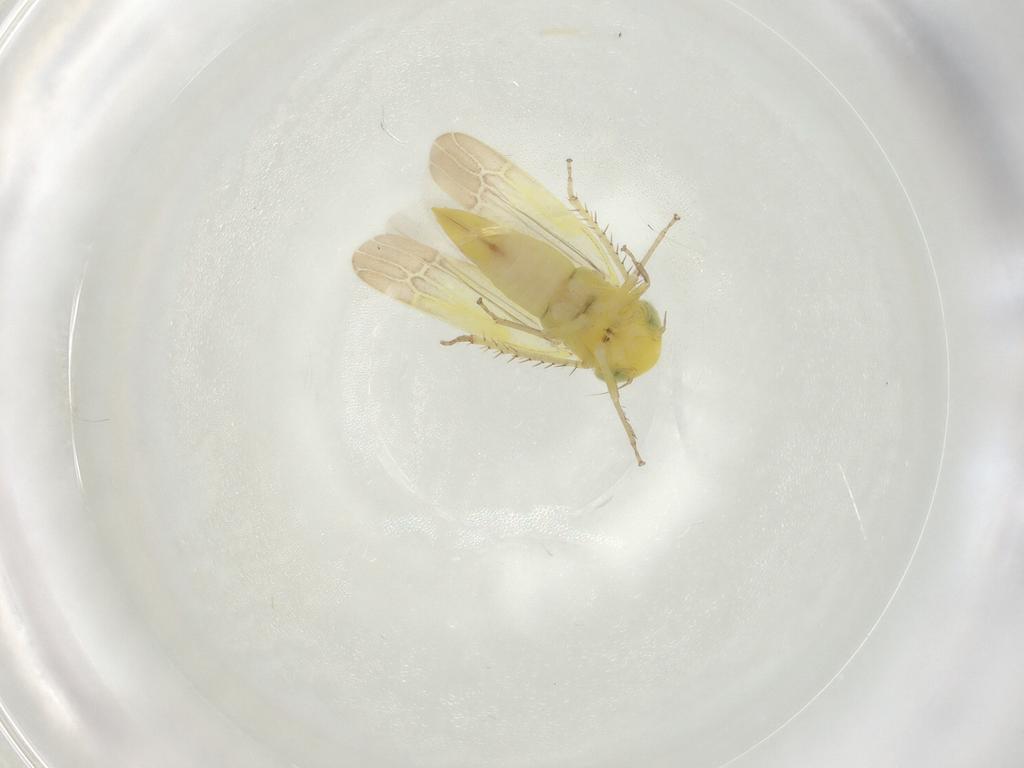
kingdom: Animalia
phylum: Arthropoda
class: Insecta
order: Hemiptera
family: Cicadellidae
